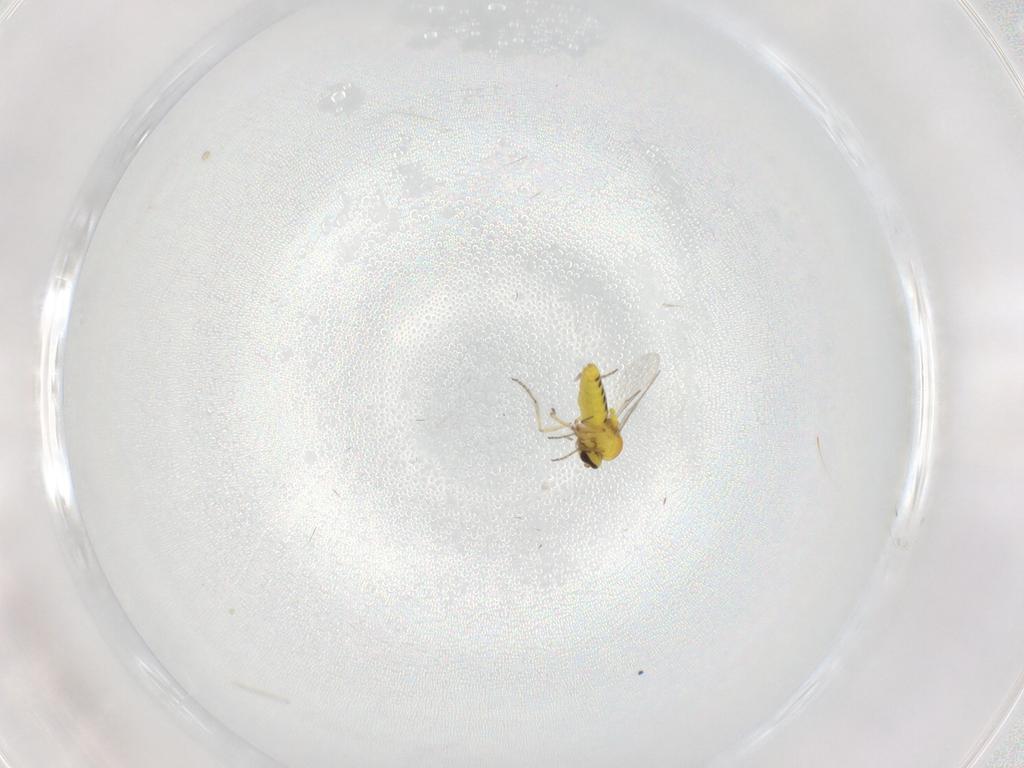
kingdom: Animalia
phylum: Arthropoda
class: Insecta
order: Diptera
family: Ceratopogonidae
